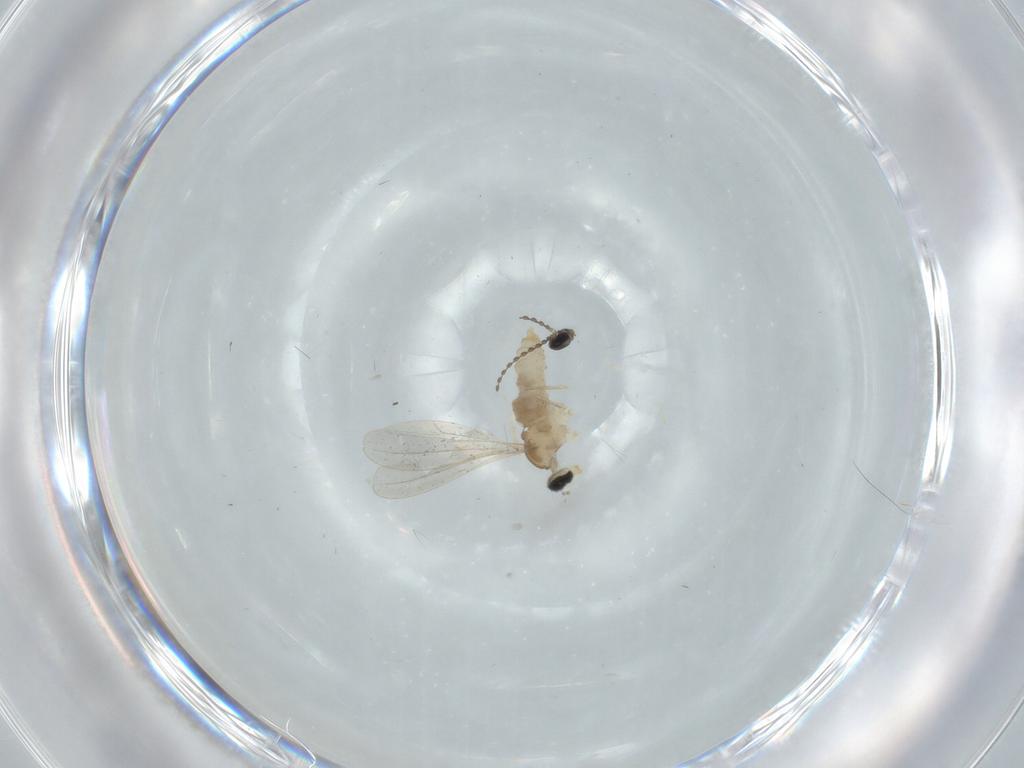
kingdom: Animalia
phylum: Arthropoda
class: Insecta
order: Diptera
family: Cecidomyiidae
